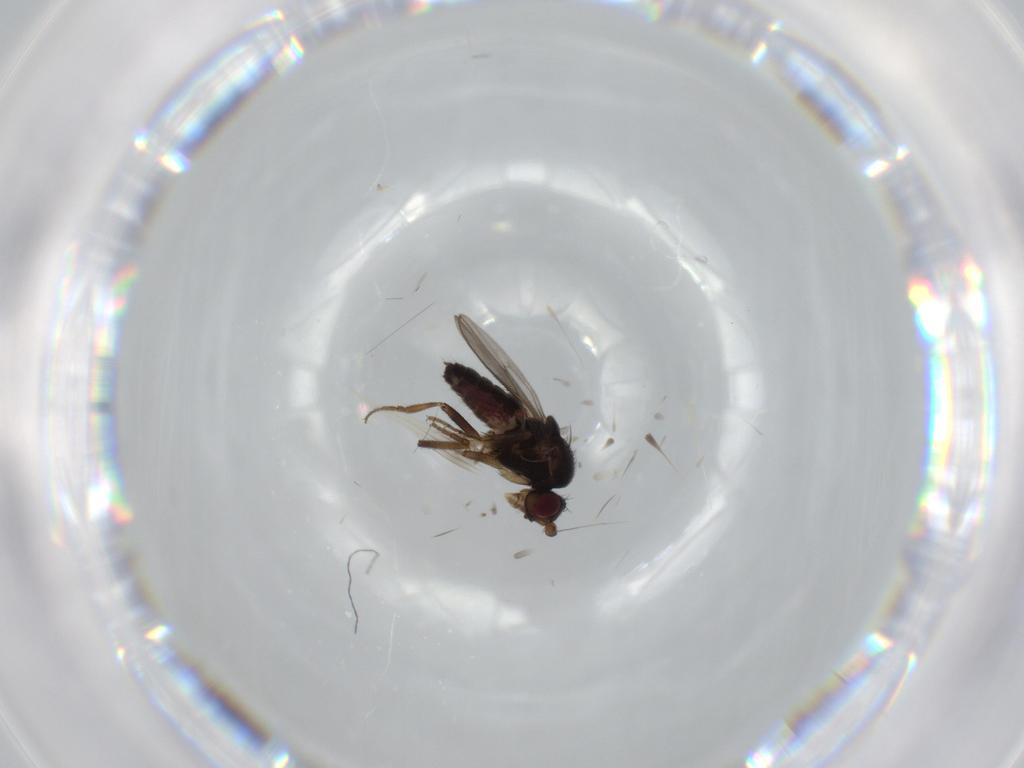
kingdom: Animalia
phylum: Arthropoda
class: Insecta
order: Diptera
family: Sphaeroceridae
